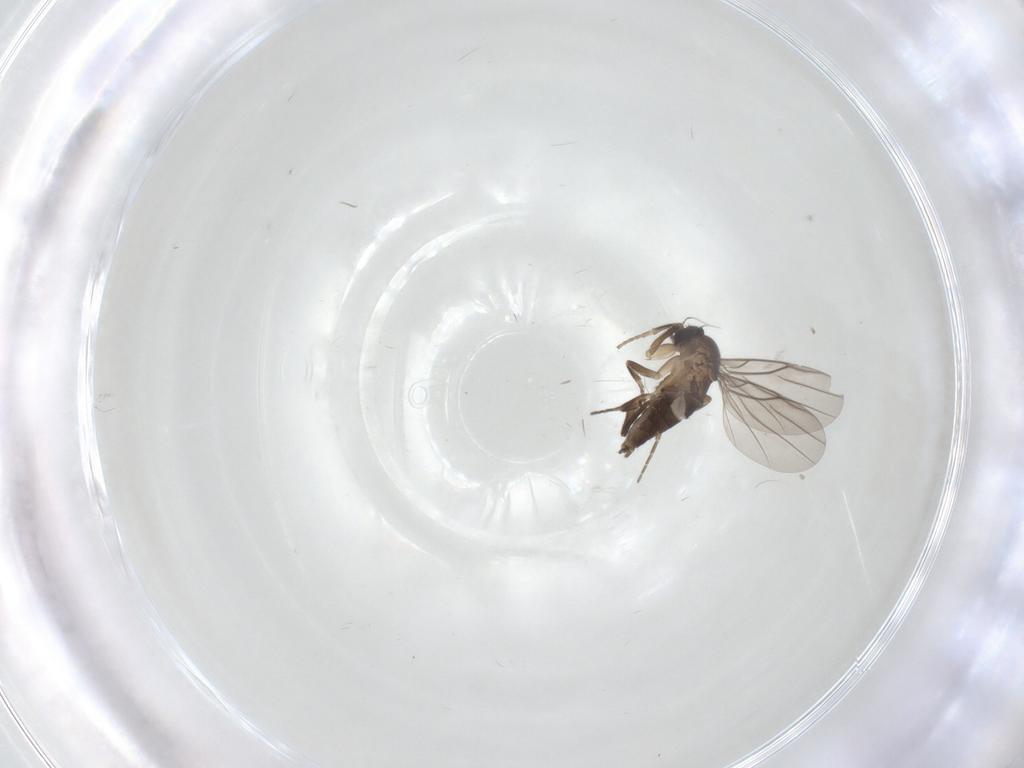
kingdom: Animalia
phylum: Arthropoda
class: Insecta
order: Diptera
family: Phoridae
